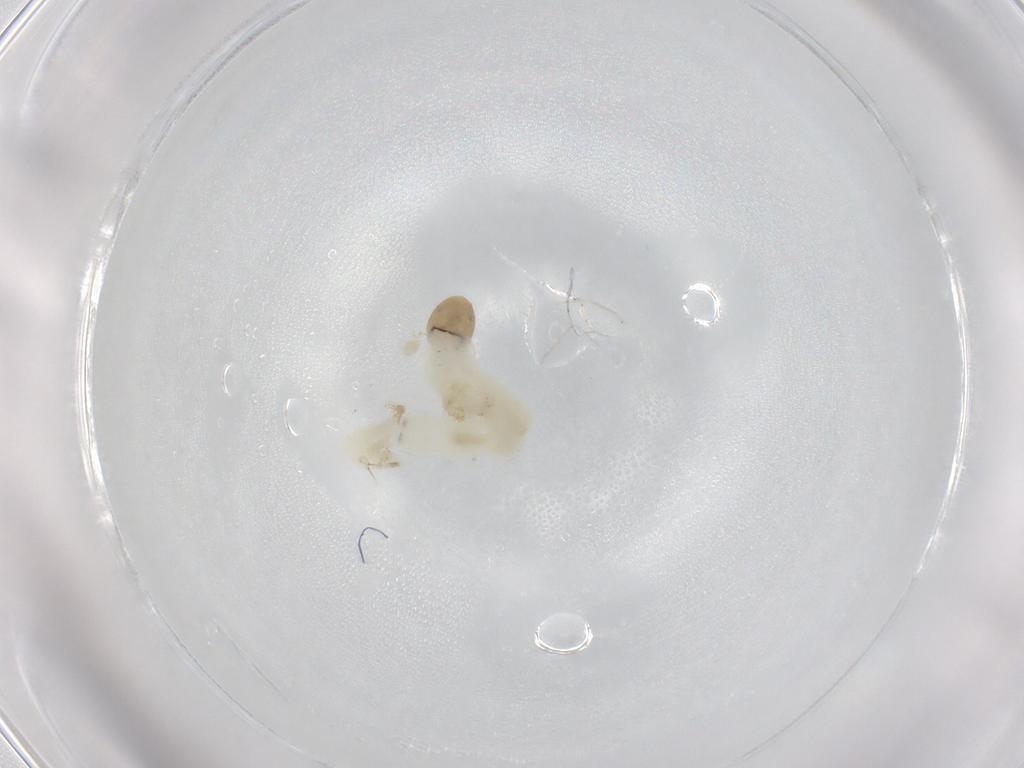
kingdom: Animalia
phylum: Arthropoda
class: Insecta
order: Diptera
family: Chironomidae
